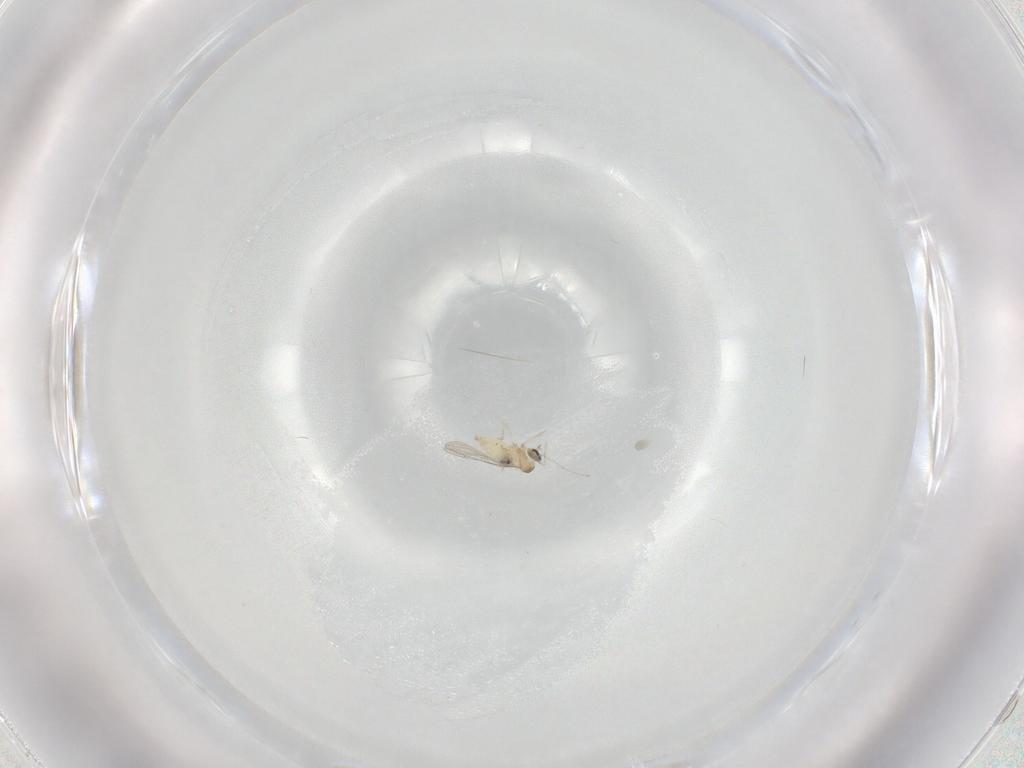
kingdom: Animalia
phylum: Arthropoda
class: Insecta
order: Diptera
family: Cecidomyiidae
